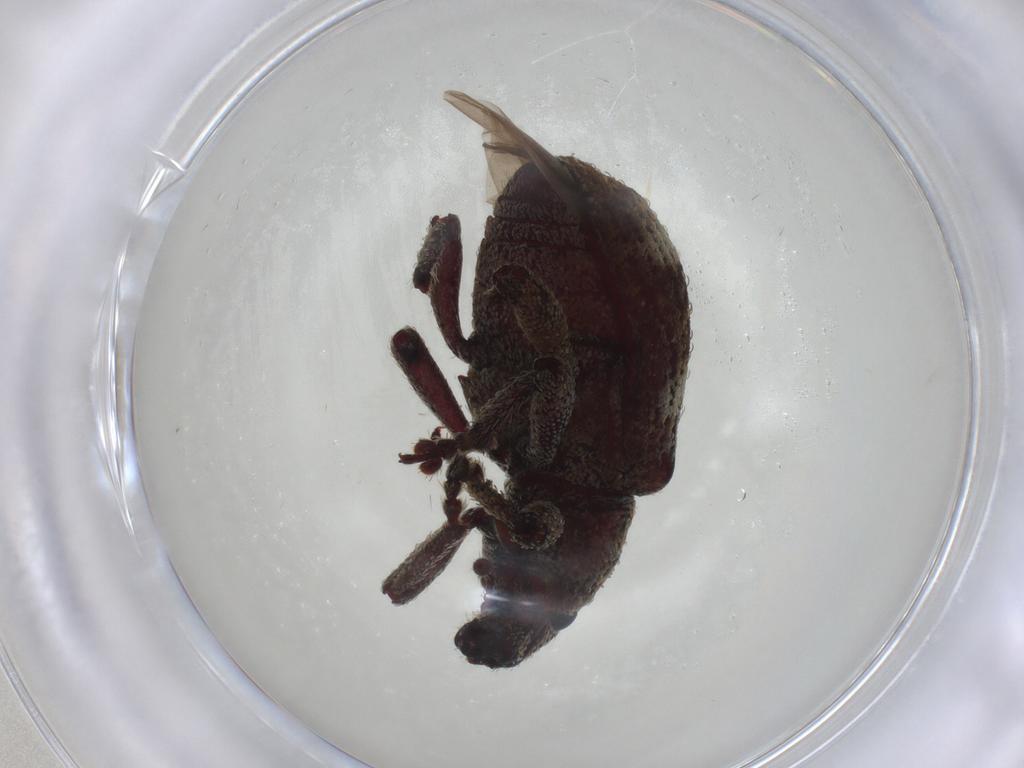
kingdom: Animalia
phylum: Arthropoda
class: Insecta
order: Coleoptera
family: Curculionidae
